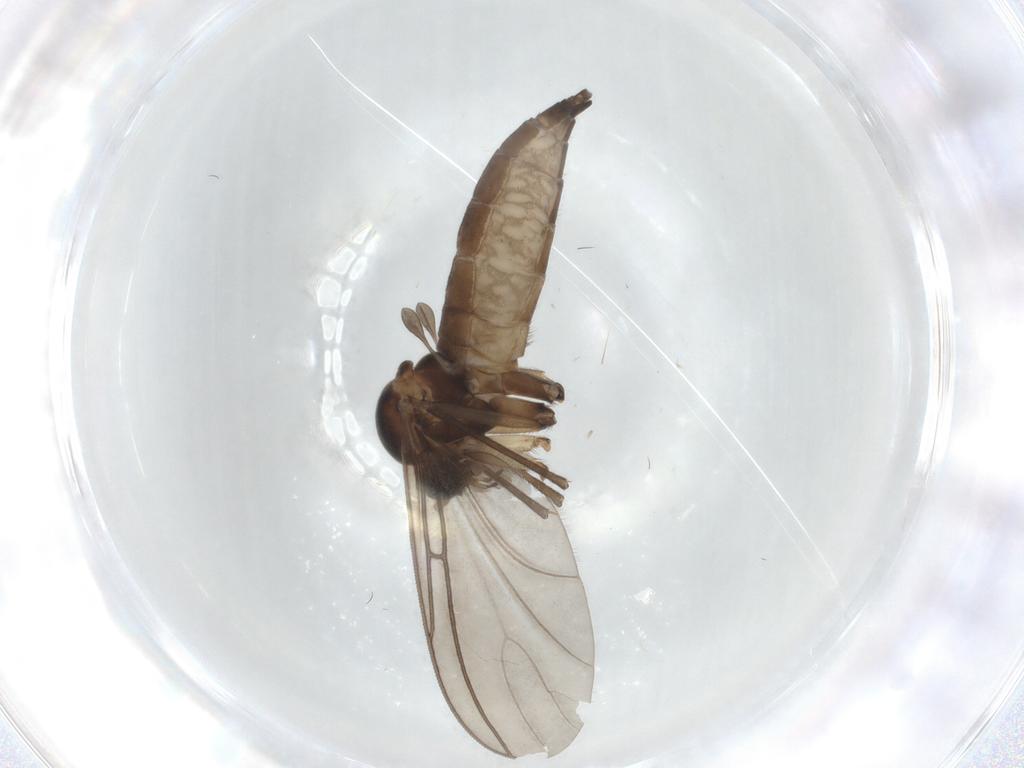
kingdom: Animalia
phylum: Arthropoda
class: Insecta
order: Diptera
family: Sciaridae
